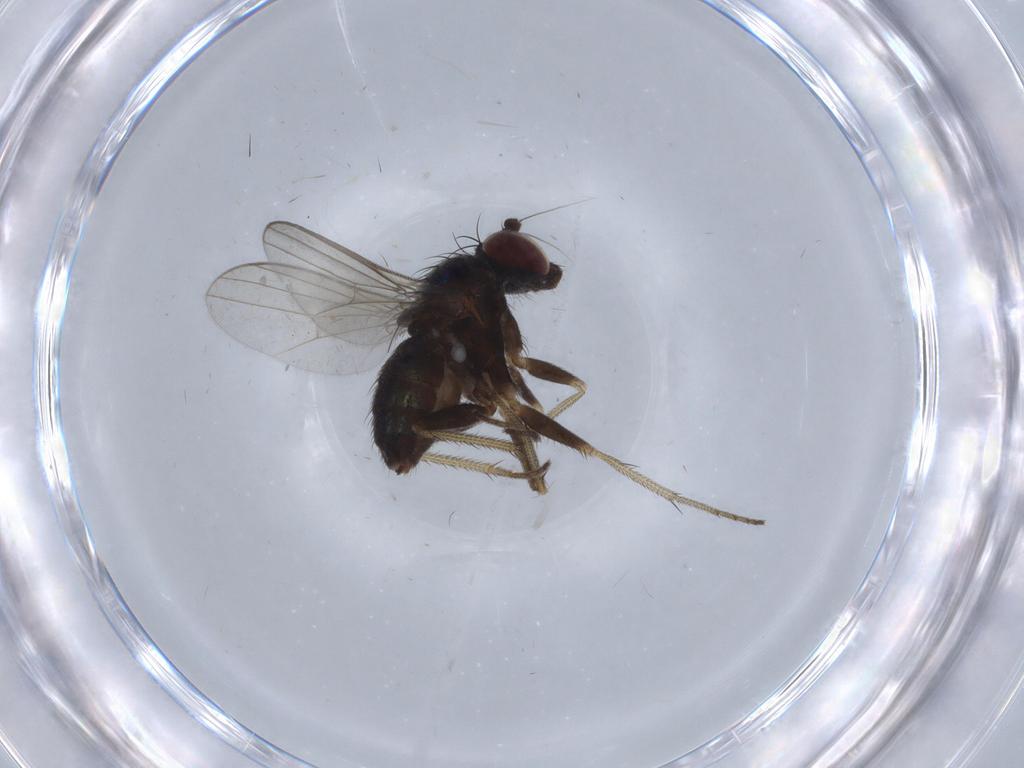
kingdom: Animalia
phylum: Arthropoda
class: Insecta
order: Diptera
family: Dolichopodidae
